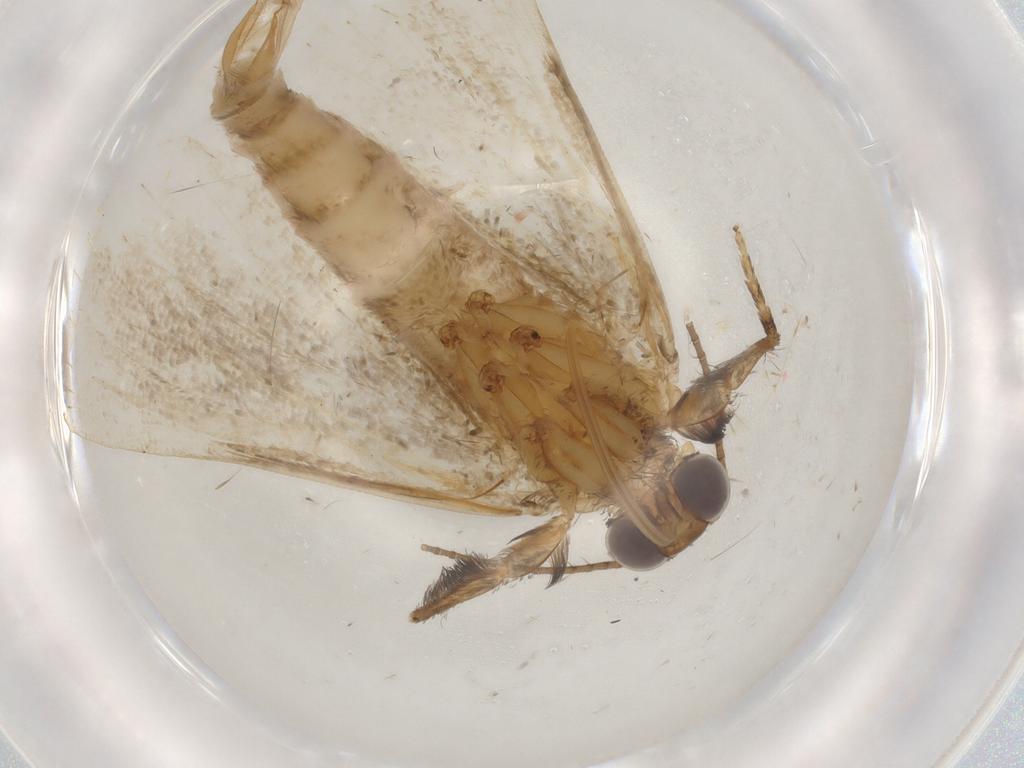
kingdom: Animalia
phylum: Arthropoda
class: Insecta
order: Lepidoptera
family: Erebidae
